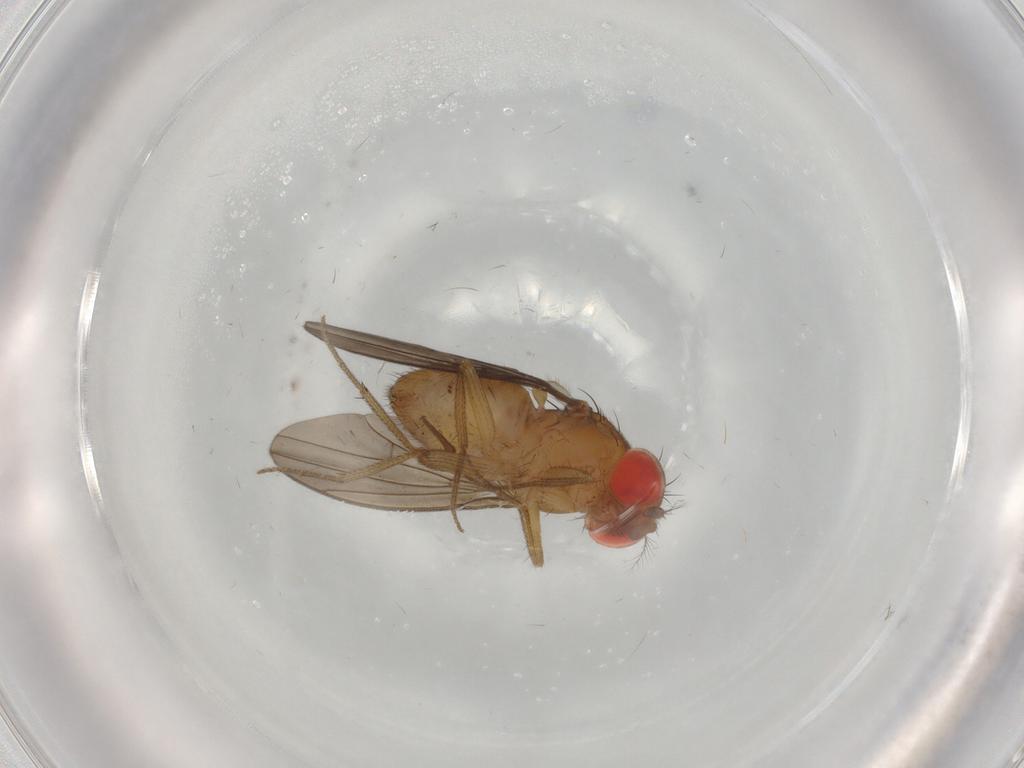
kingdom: Animalia
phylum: Arthropoda
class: Insecta
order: Diptera
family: Drosophilidae
